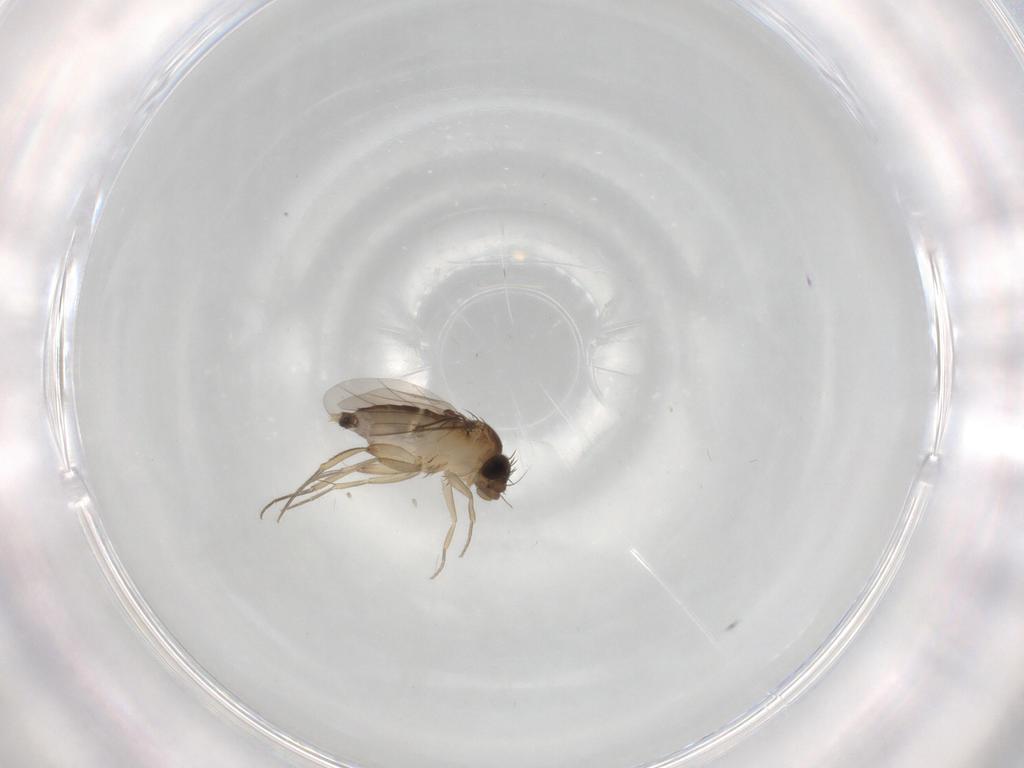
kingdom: Animalia
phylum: Arthropoda
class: Insecta
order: Diptera
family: Phoridae
